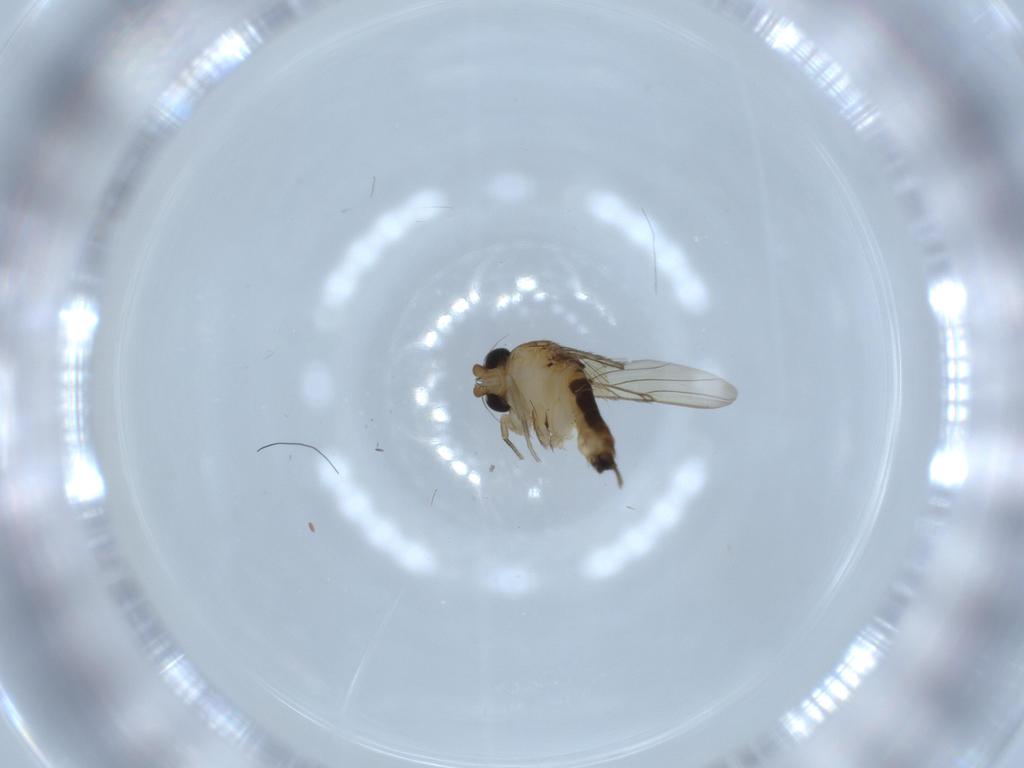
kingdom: Animalia
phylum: Arthropoda
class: Insecta
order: Diptera
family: Phoridae
